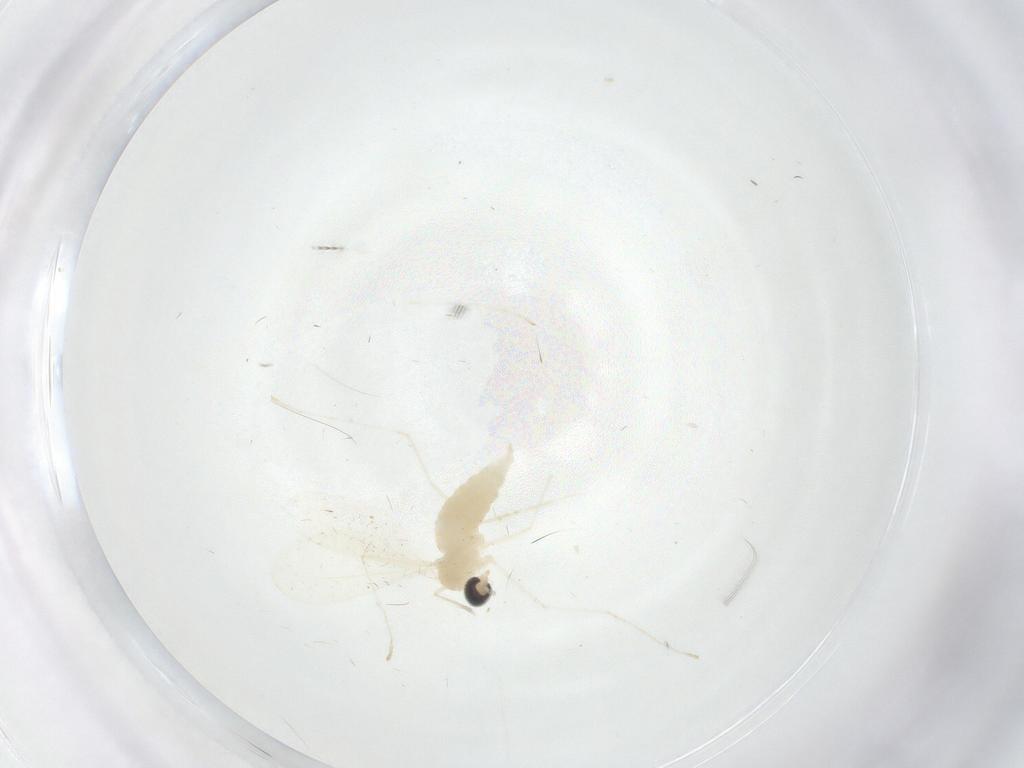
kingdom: Animalia
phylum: Arthropoda
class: Insecta
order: Diptera
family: Cecidomyiidae
